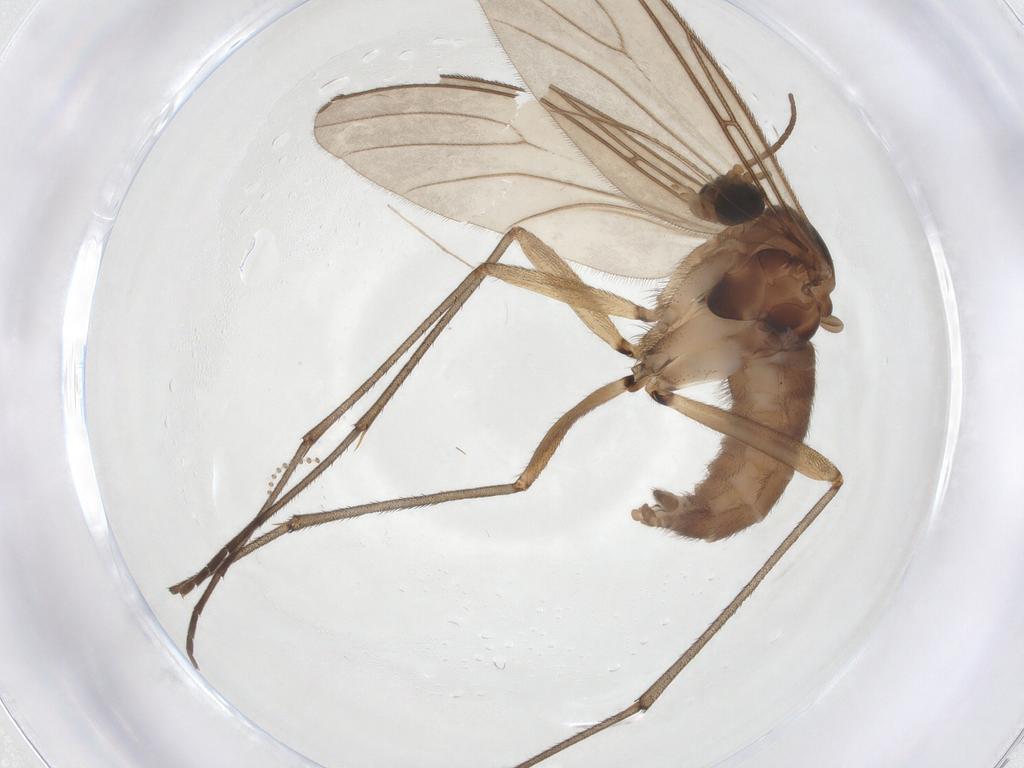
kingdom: Animalia
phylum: Arthropoda
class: Insecta
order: Diptera
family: Sciaridae
